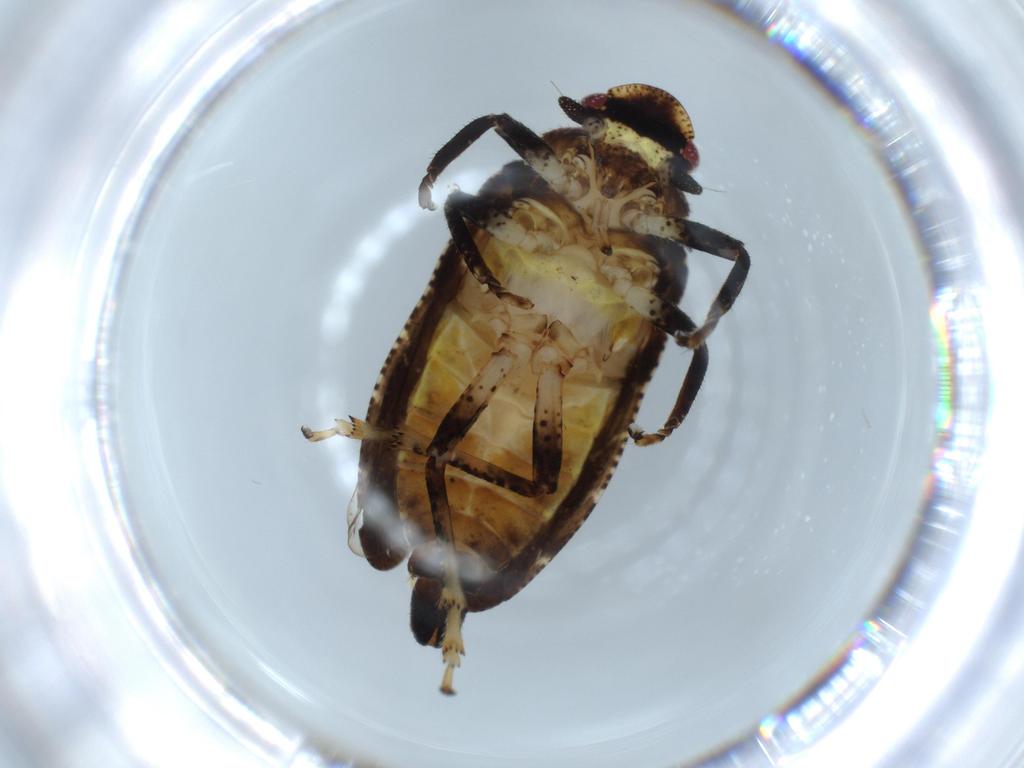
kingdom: Animalia
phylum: Arthropoda
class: Insecta
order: Hemiptera
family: Tettigometridae
